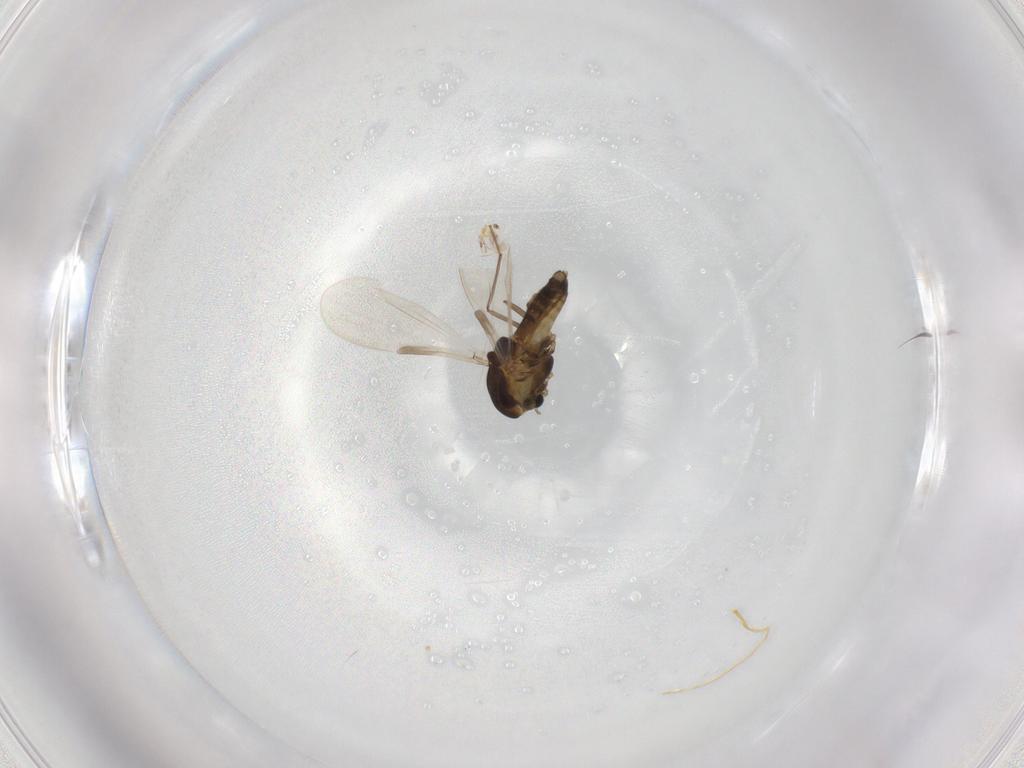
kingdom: Animalia
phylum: Arthropoda
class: Insecta
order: Diptera
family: Chironomidae
